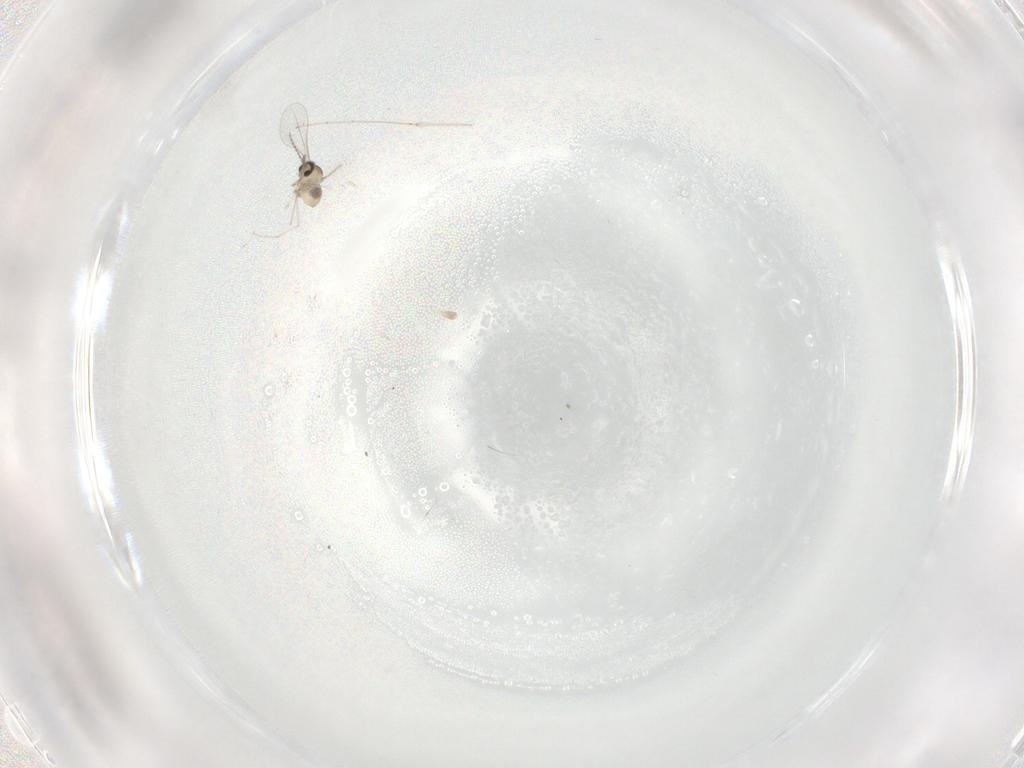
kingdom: Animalia
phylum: Arthropoda
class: Insecta
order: Diptera
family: Cecidomyiidae
